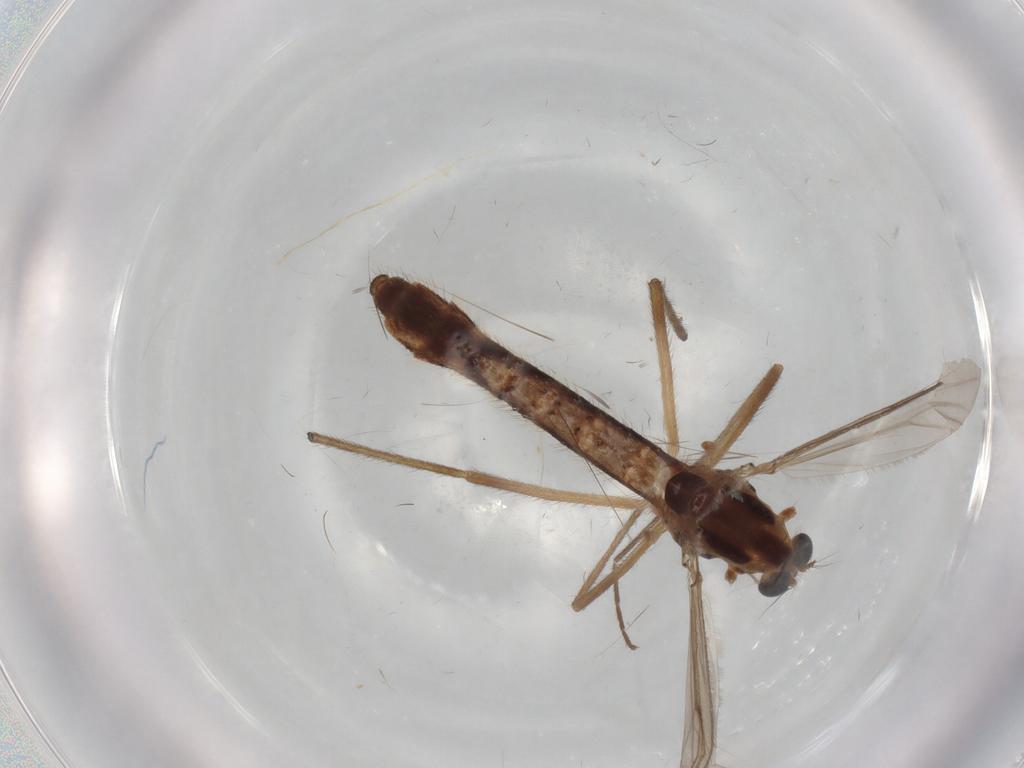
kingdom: Animalia
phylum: Arthropoda
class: Insecta
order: Diptera
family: Chironomidae
